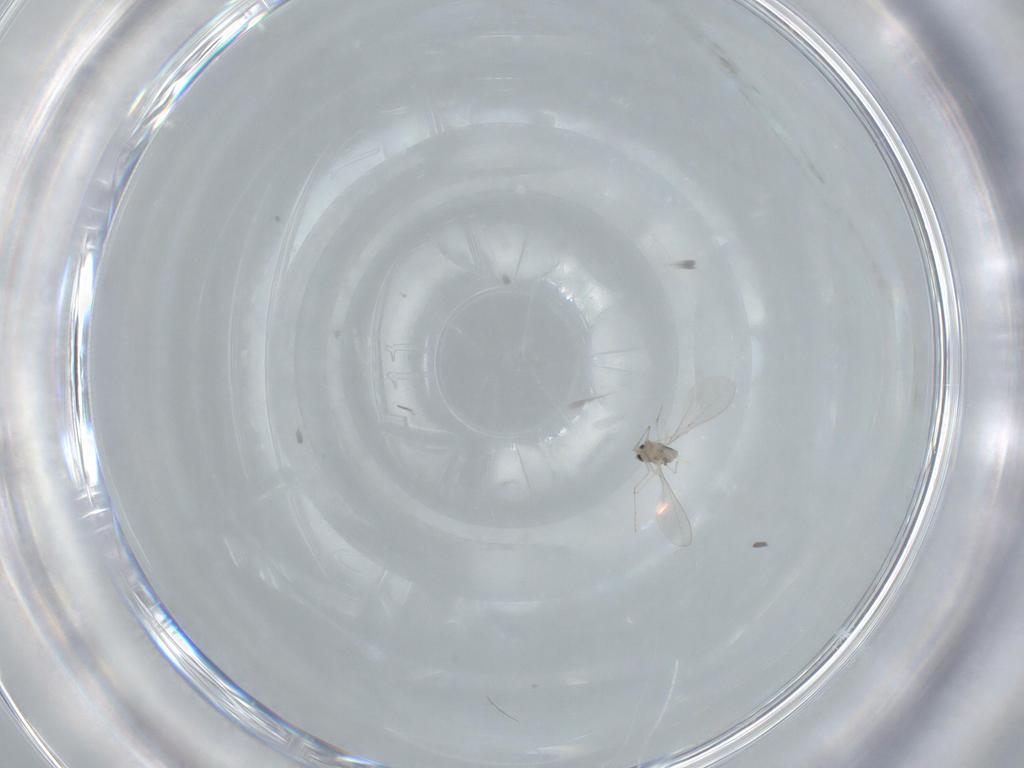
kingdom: Animalia
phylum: Arthropoda
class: Insecta
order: Diptera
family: Cecidomyiidae
